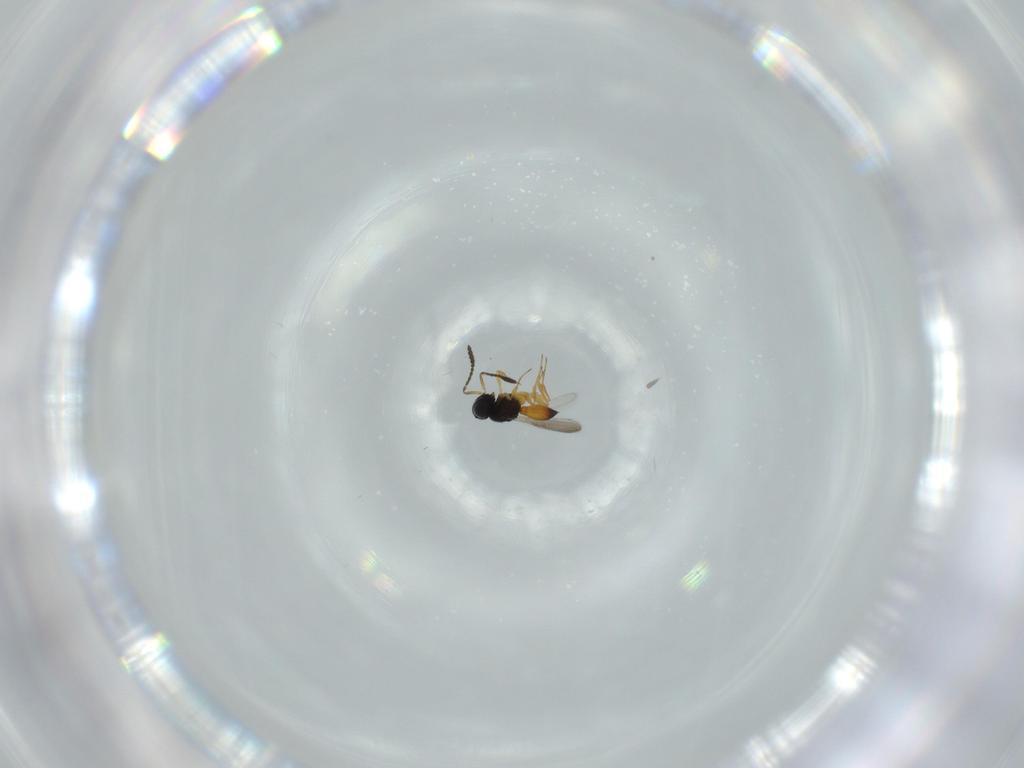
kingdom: Animalia
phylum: Arthropoda
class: Insecta
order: Hymenoptera
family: Scelionidae
